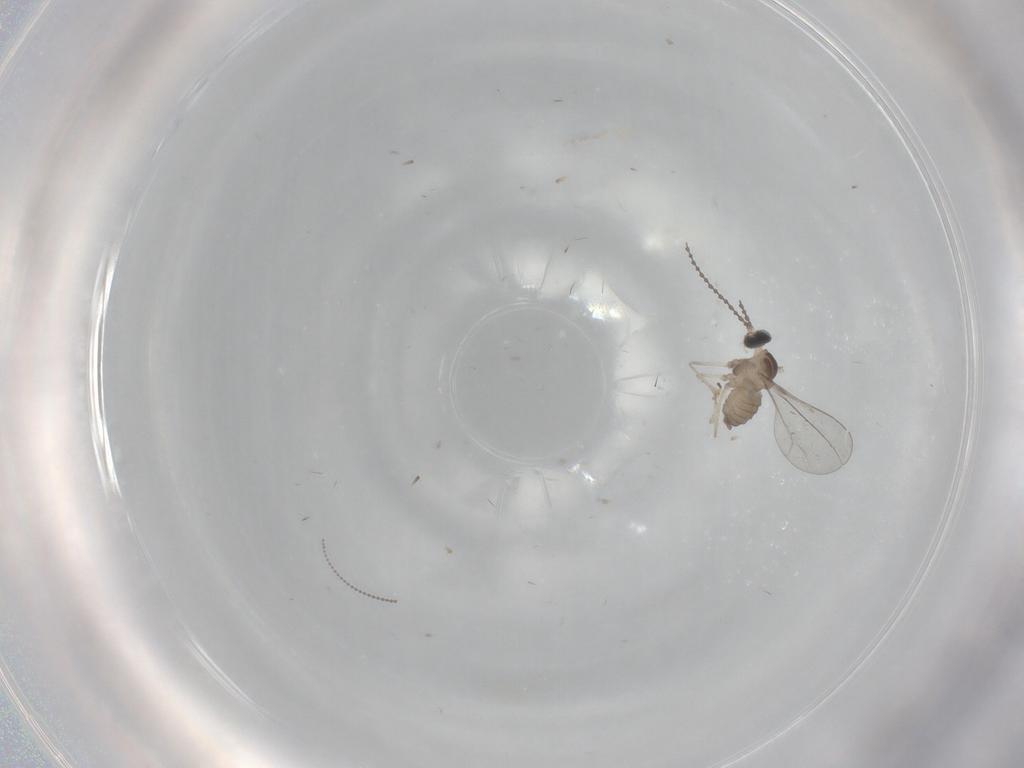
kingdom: Animalia
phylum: Arthropoda
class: Insecta
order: Diptera
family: Cecidomyiidae
